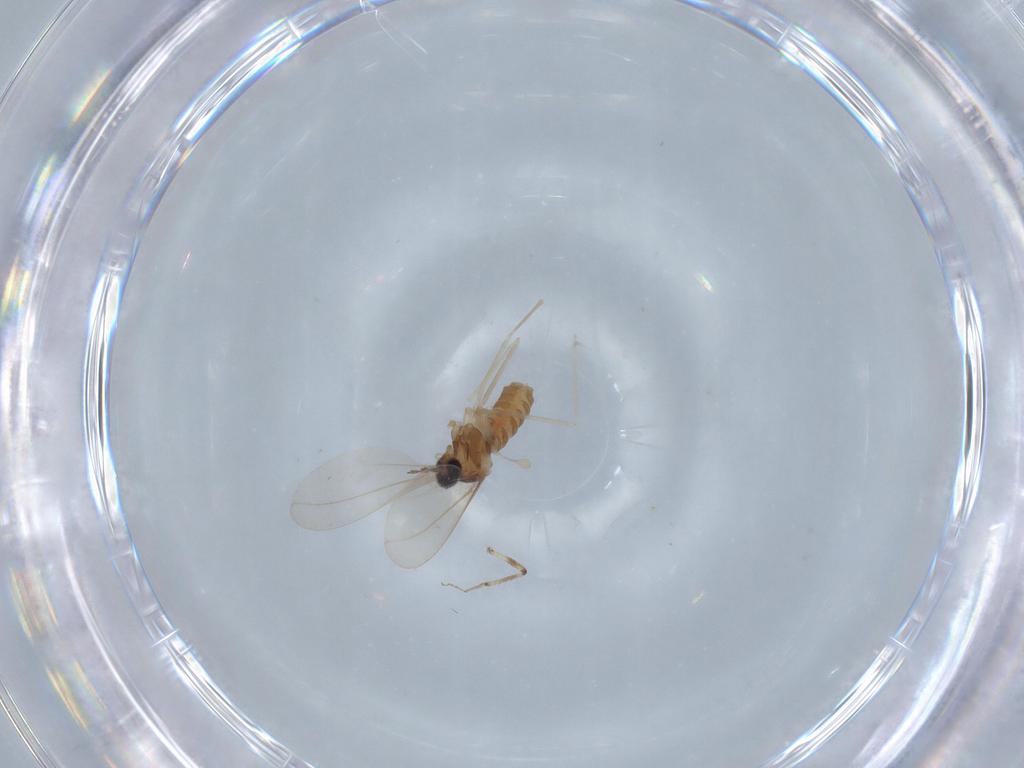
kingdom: Animalia
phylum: Arthropoda
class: Insecta
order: Diptera
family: Cecidomyiidae
